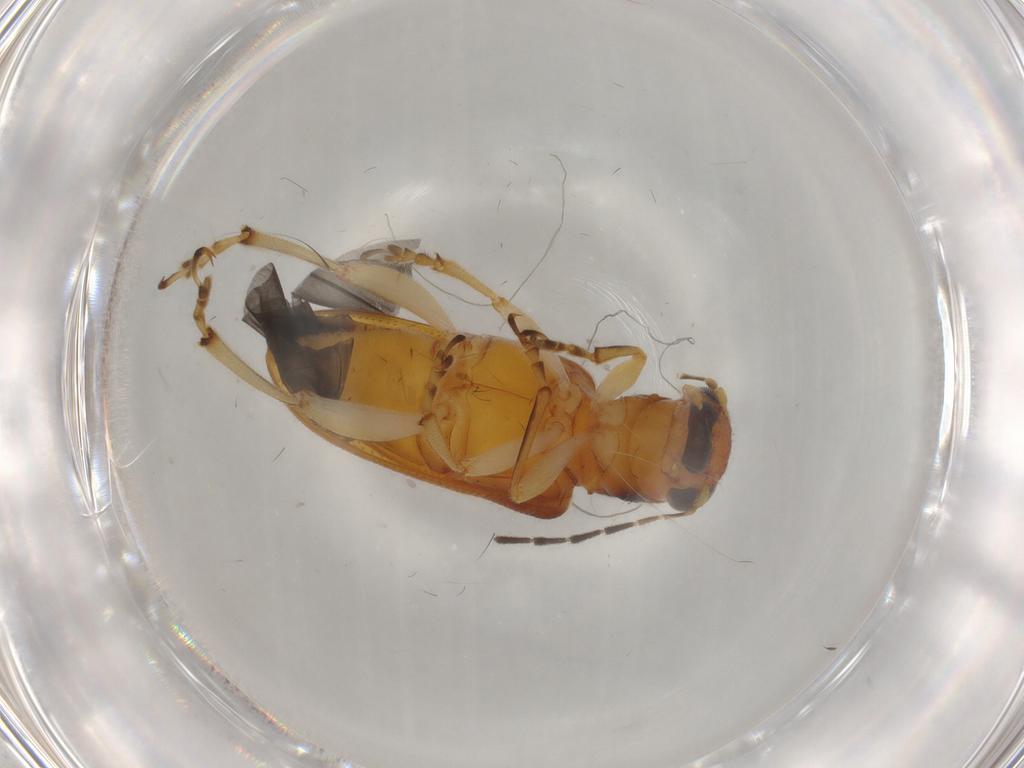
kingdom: Animalia
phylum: Arthropoda
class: Insecta
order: Coleoptera
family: Chrysomelidae
